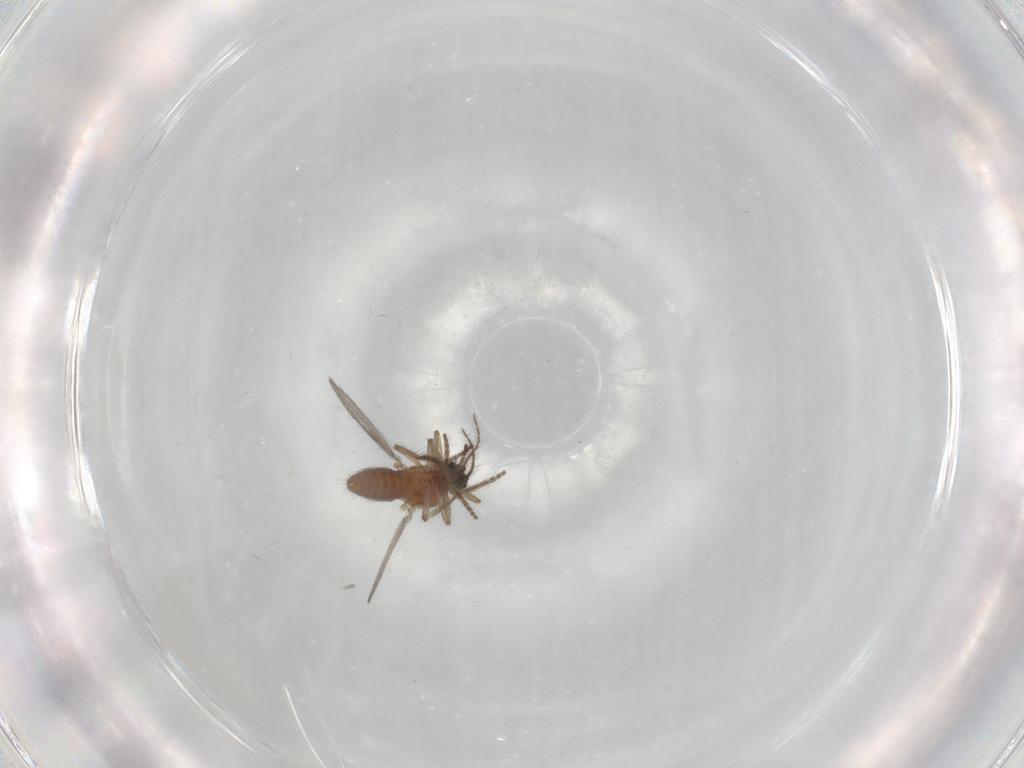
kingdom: Animalia
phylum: Arthropoda
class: Insecta
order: Diptera
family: Ceratopogonidae
